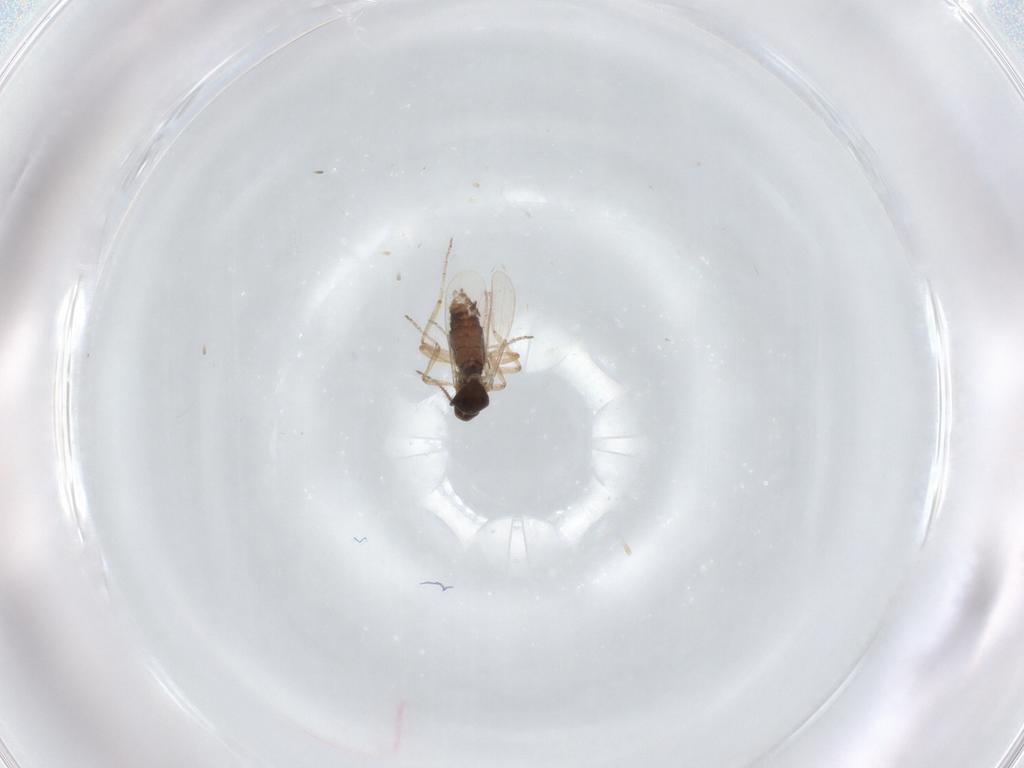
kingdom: Animalia
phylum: Arthropoda
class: Insecta
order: Diptera
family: Ceratopogonidae
